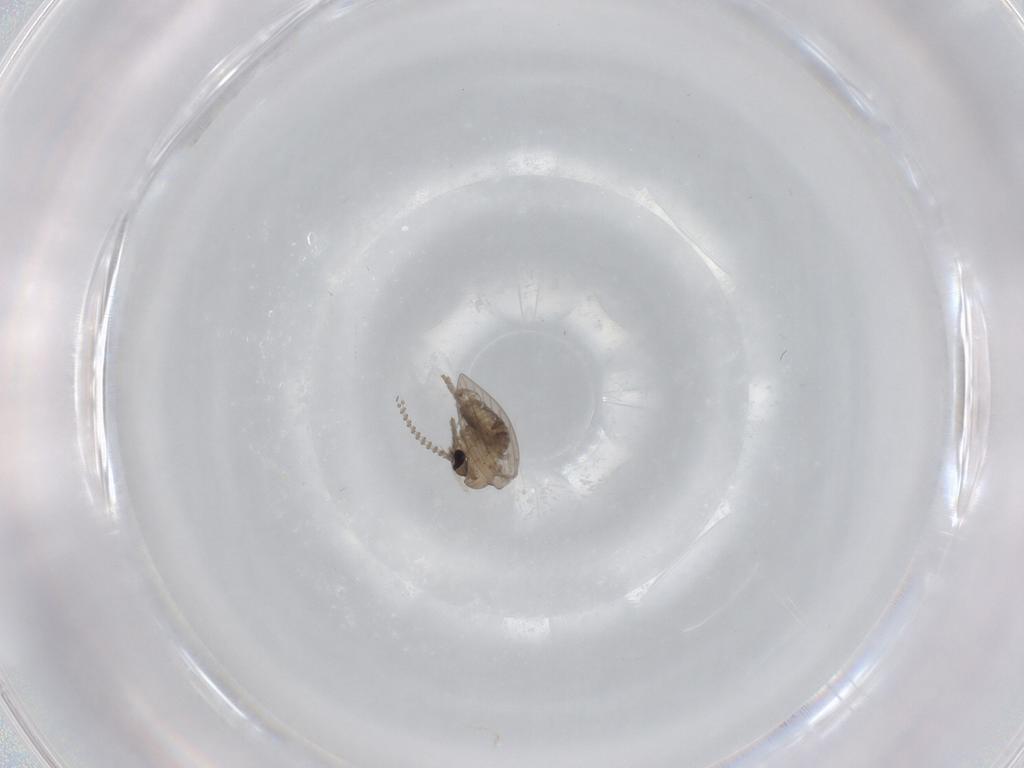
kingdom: Animalia
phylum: Arthropoda
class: Insecta
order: Diptera
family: Psychodidae
